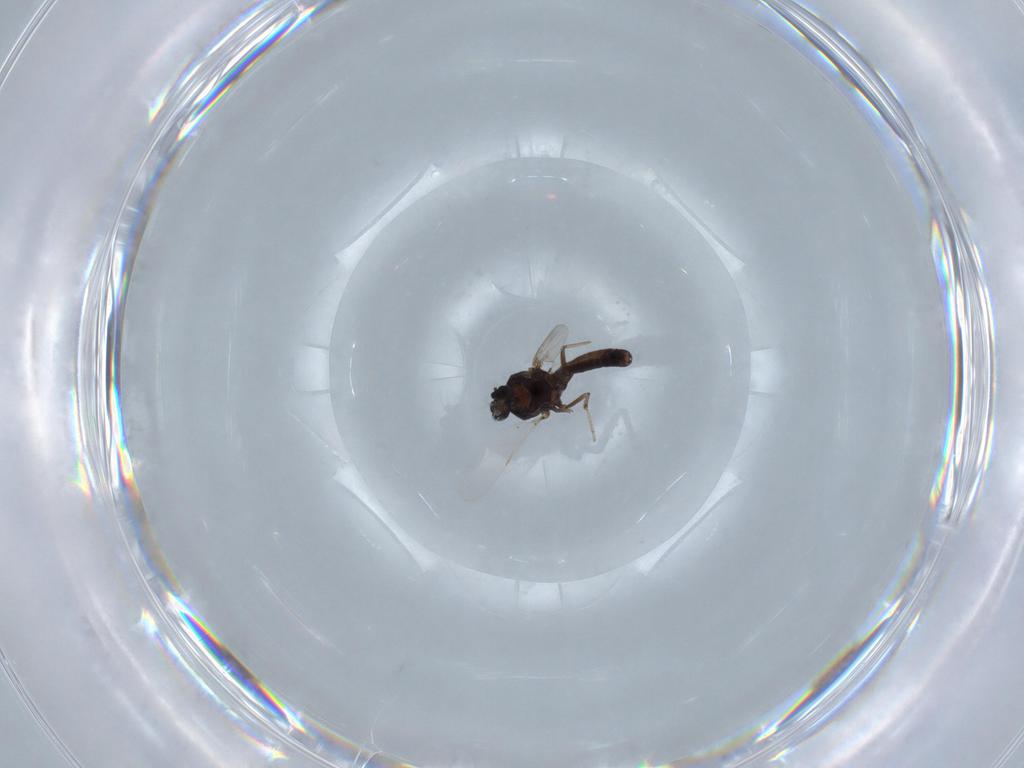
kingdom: Animalia
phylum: Arthropoda
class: Insecta
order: Diptera
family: Ceratopogonidae
